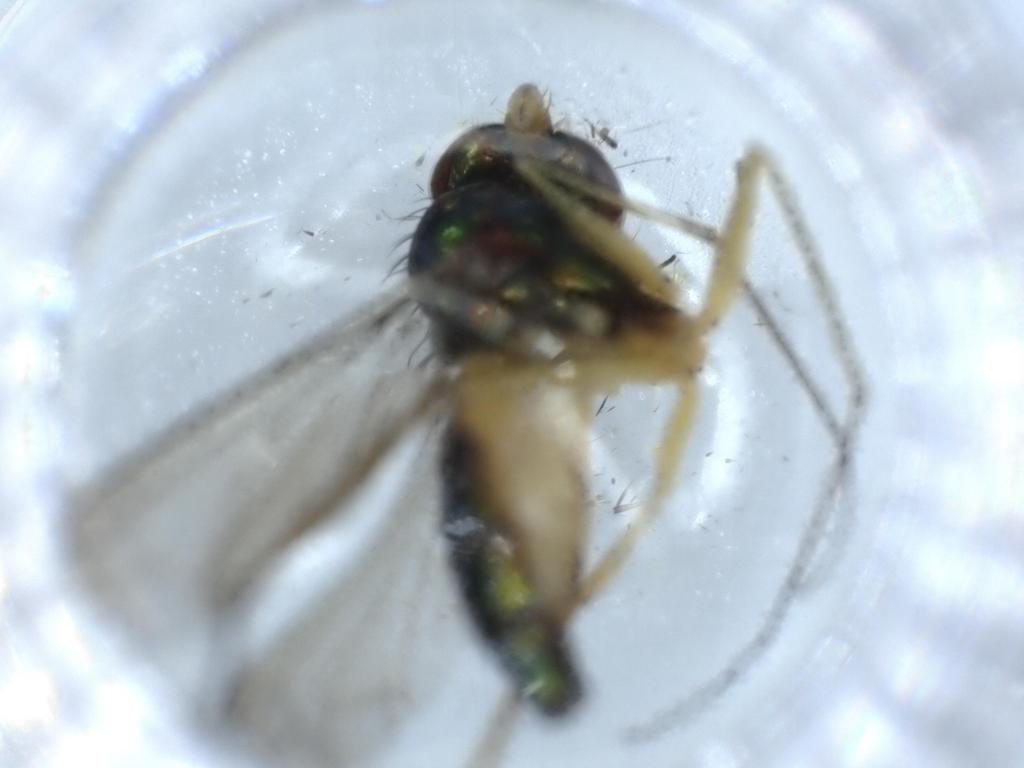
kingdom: Animalia
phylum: Arthropoda
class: Insecta
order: Diptera
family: Dolichopodidae
